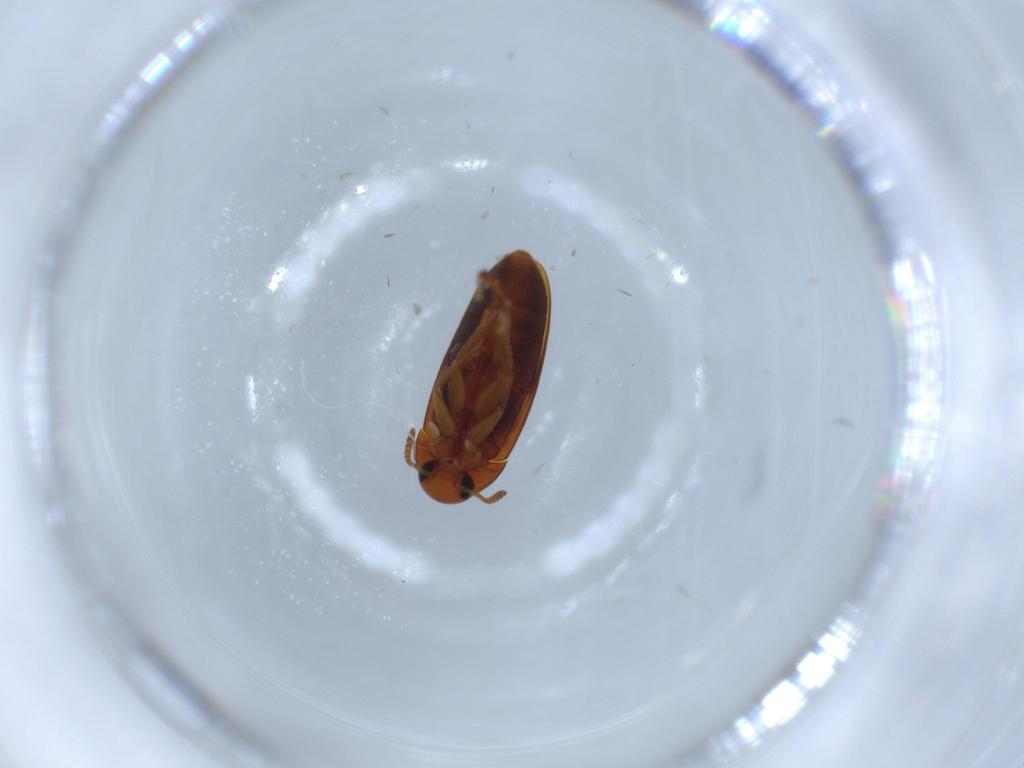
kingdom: Animalia
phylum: Arthropoda
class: Insecta
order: Coleoptera
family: Scraptiidae
